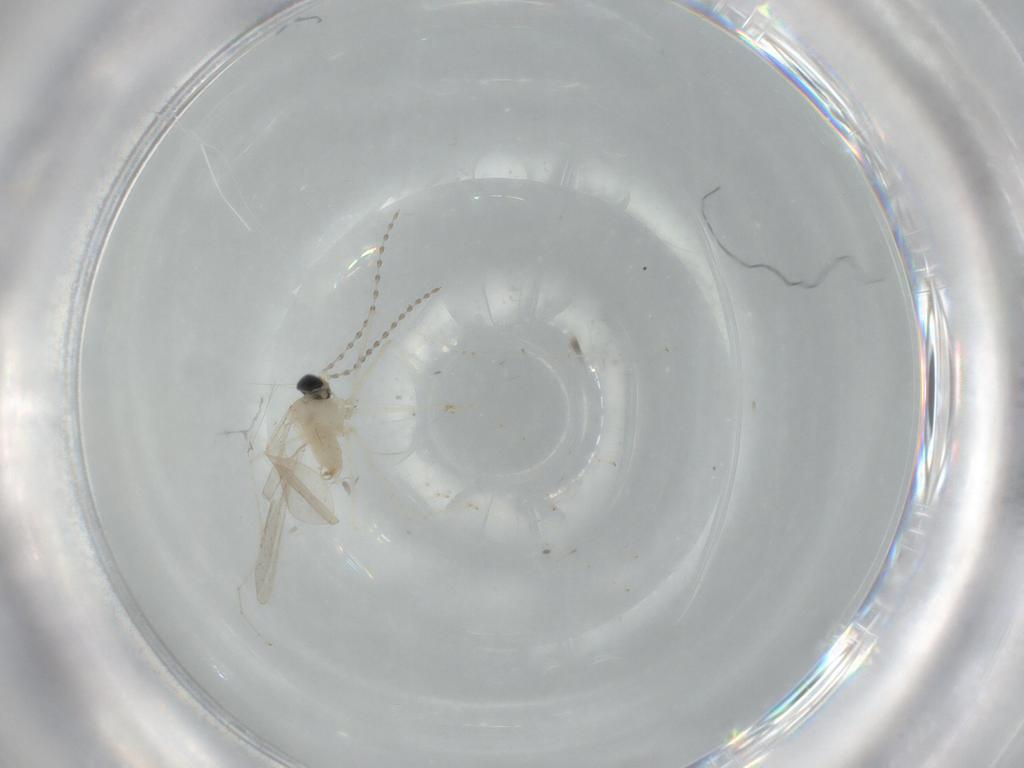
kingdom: Animalia
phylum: Arthropoda
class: Insecta
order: Diptera
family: Cecidomyiidae
